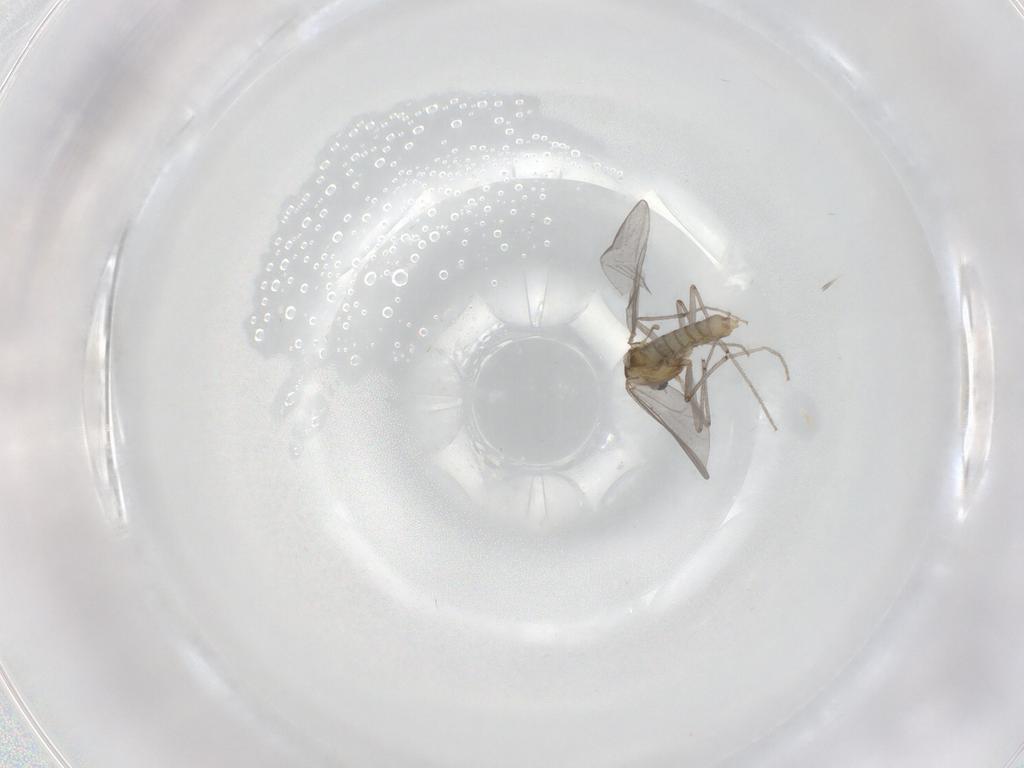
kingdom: Animalia
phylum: Arthropoda
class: Insecta
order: Diptera
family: Chironomidae
